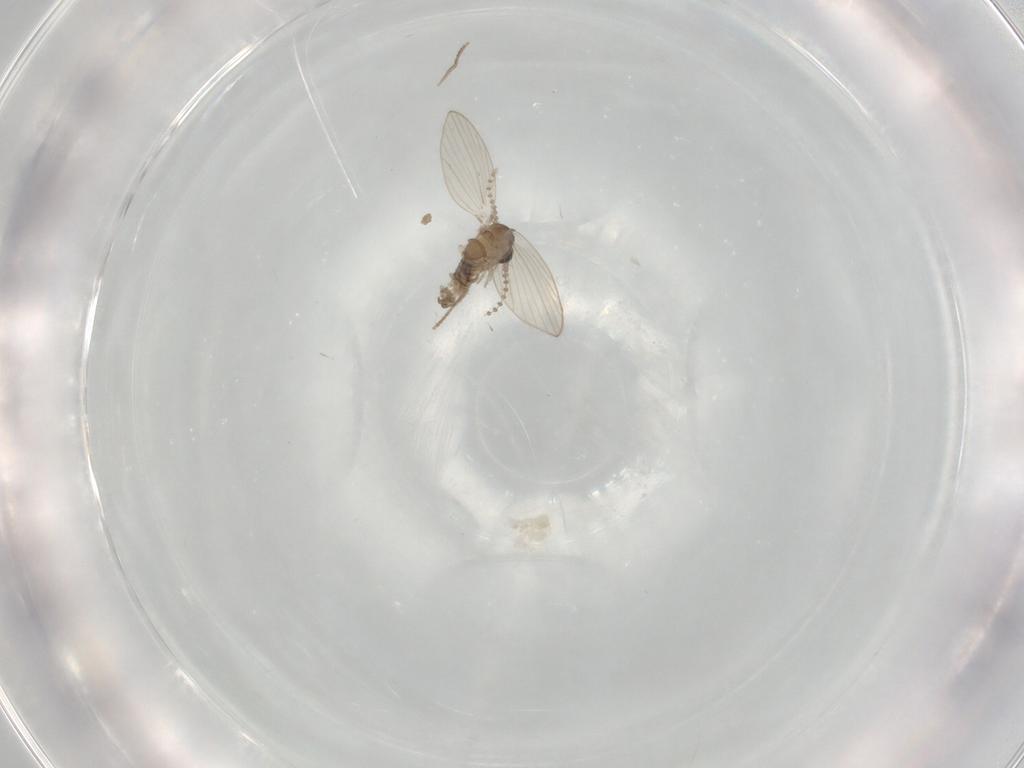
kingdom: Animalia
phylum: Arthropoda
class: Insecta
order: Diptera
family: Psychodidae
